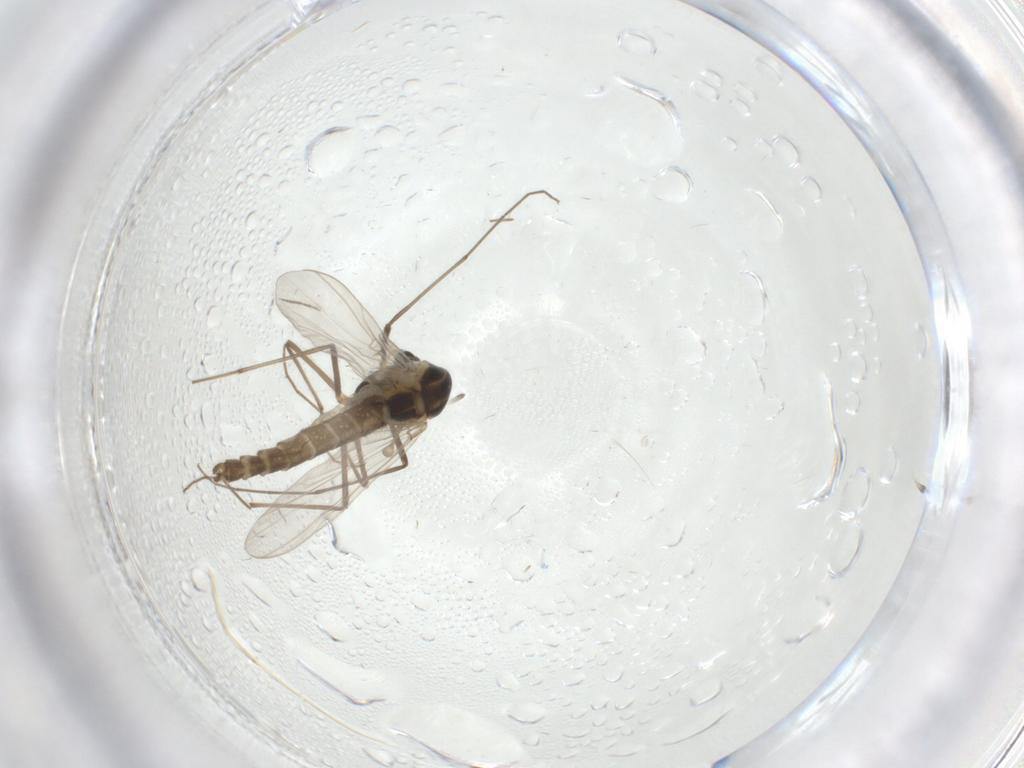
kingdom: Animalia
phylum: Arthropoda
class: Insecta
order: Diptera
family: Chironomidae
